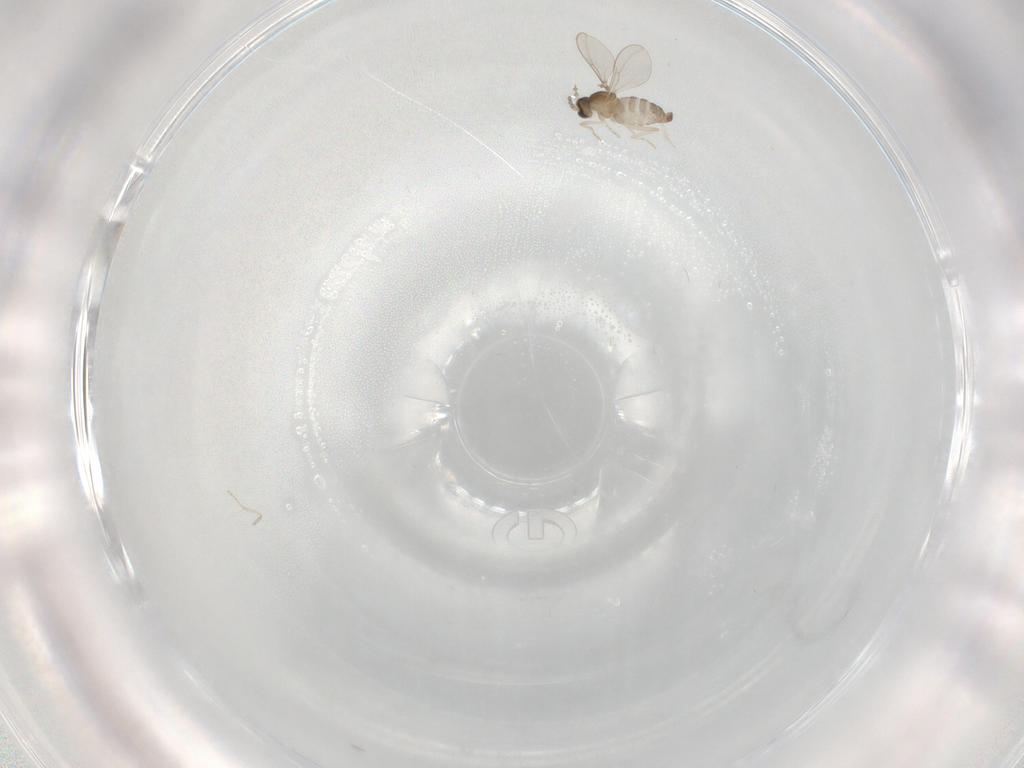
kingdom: Animalia
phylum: Arthropoda
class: Insecta
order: Diptera
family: Cecidomyiidae
